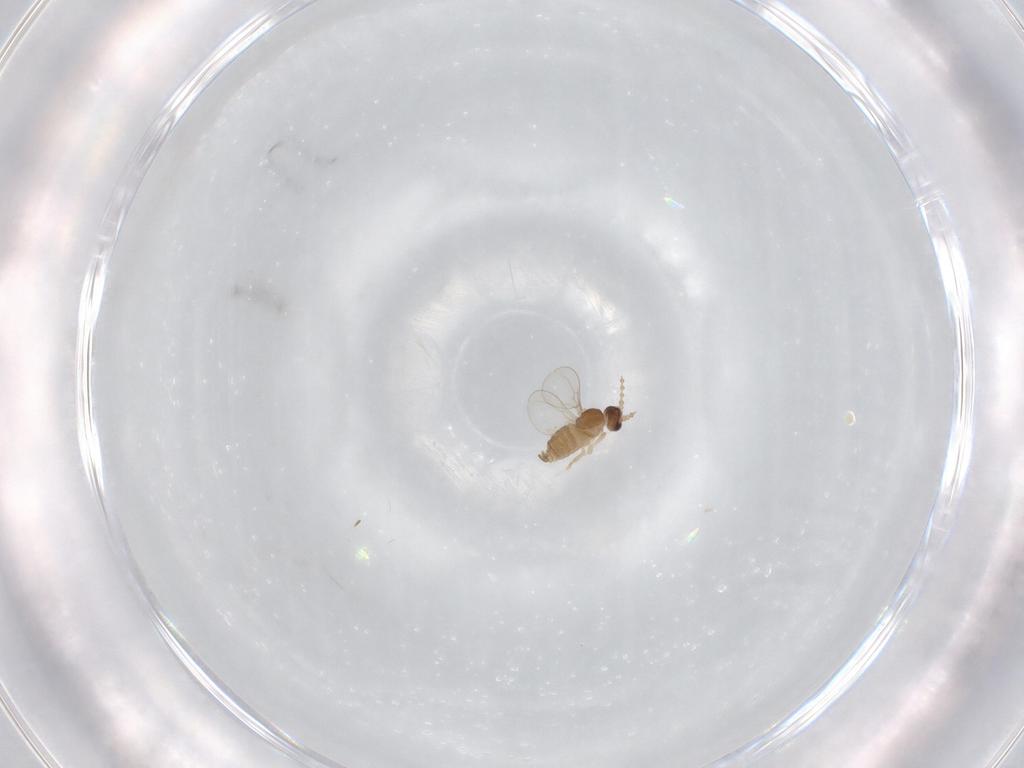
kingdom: Animalia
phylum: Arthropoda
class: Insecta
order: Diptera
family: Cecidomyiidae
